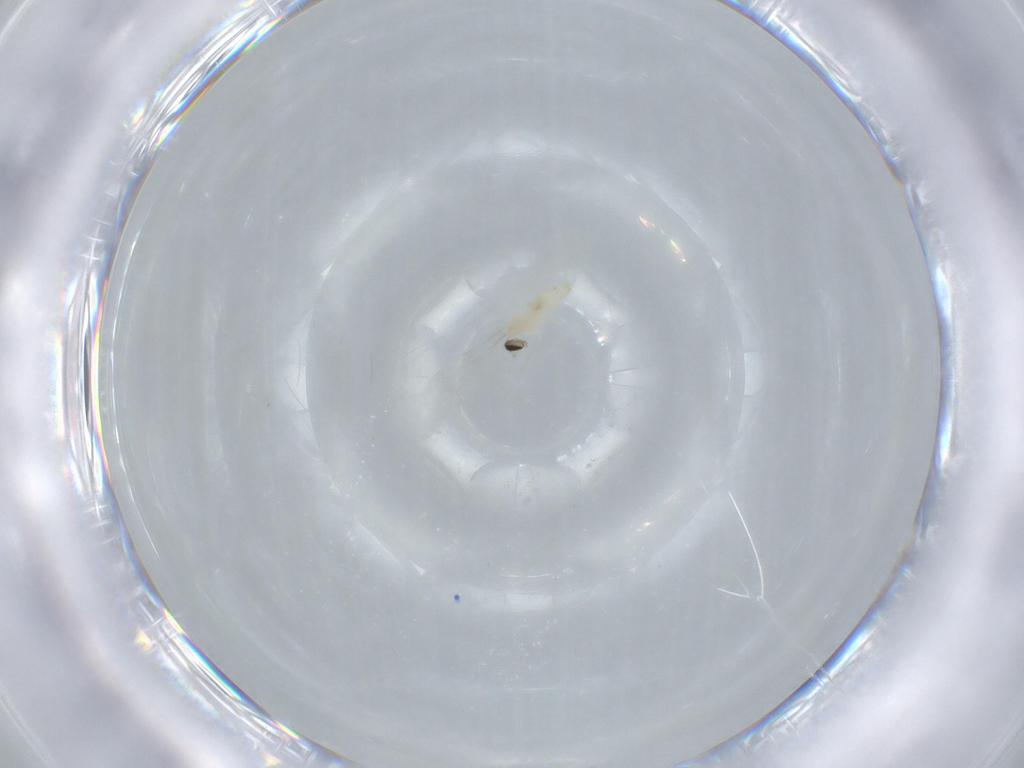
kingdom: Animalia
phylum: Arthropoda
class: Insecta
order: Diptera
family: Cecidomyiidae
